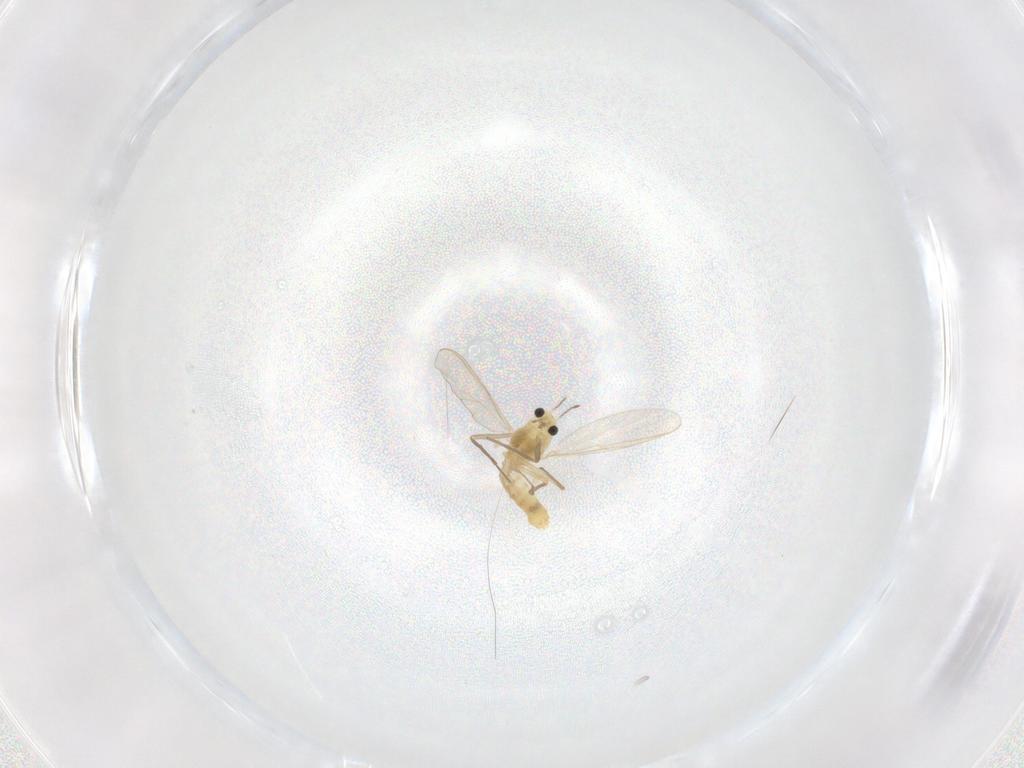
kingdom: Animalia
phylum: Arthropoda
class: Insecta
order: Diptera
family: Chironomidae
